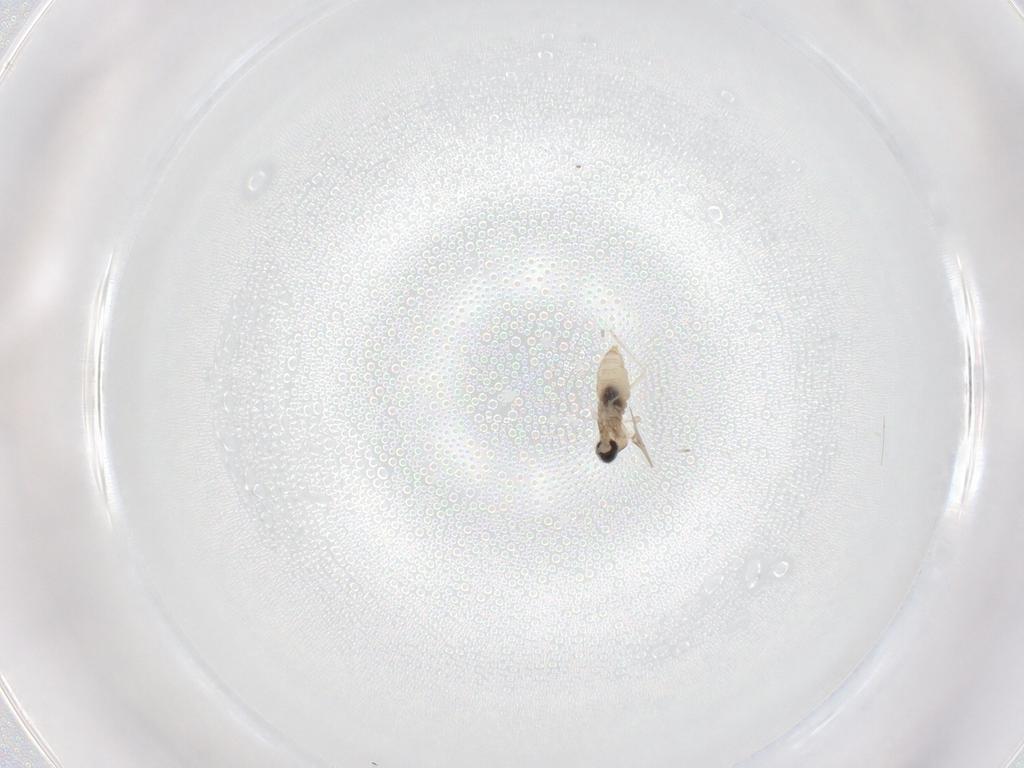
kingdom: Animalia
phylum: Arthropoda
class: Insecta
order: Diptera
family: Cecidomyiidae
